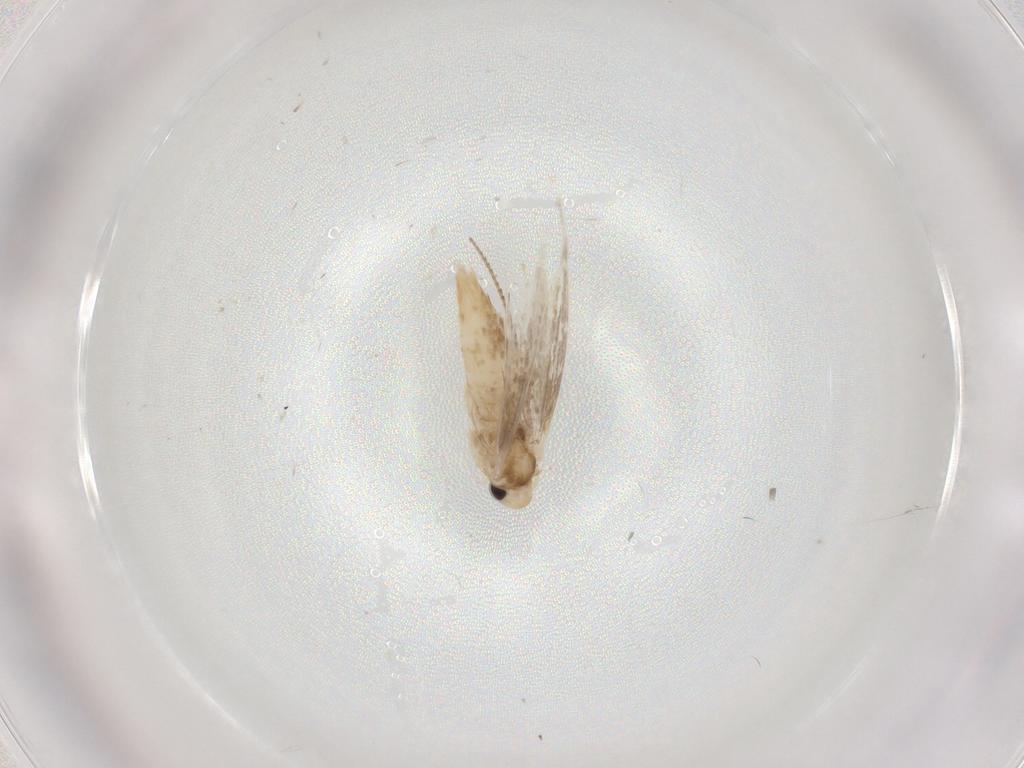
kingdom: Animalia
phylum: Arthropoda
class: Insecta
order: Lepidoptera
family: Gracillariidae
